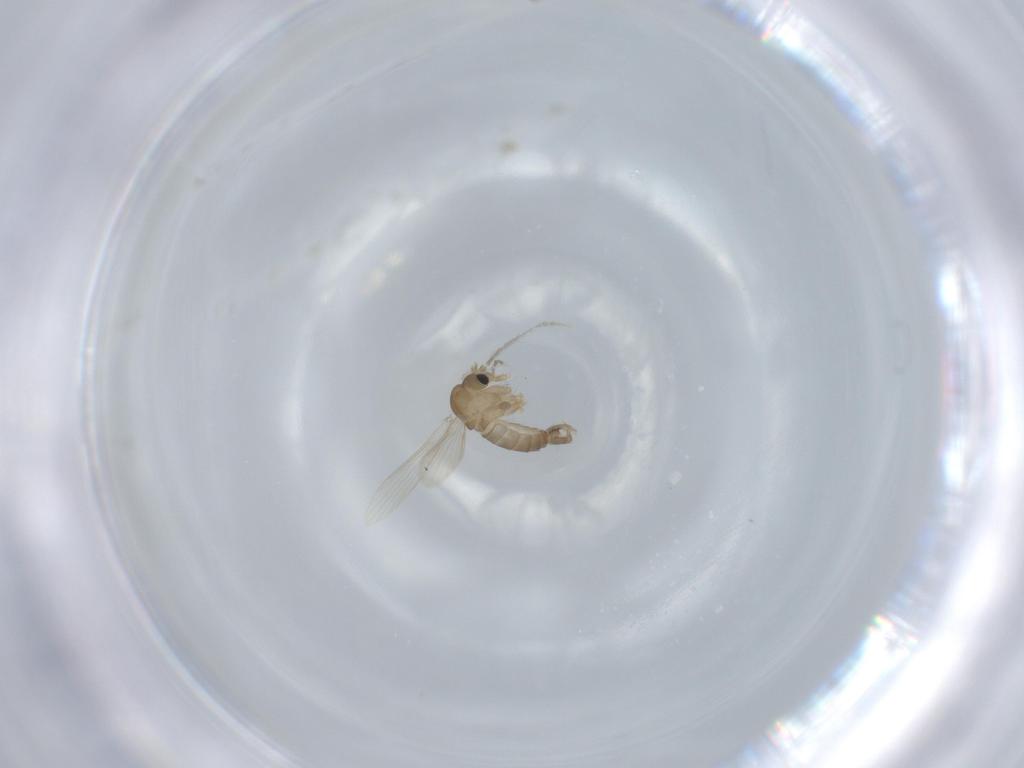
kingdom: Animalia
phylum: Arthropoda
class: Insecta
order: Diptera
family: Psychodidae
